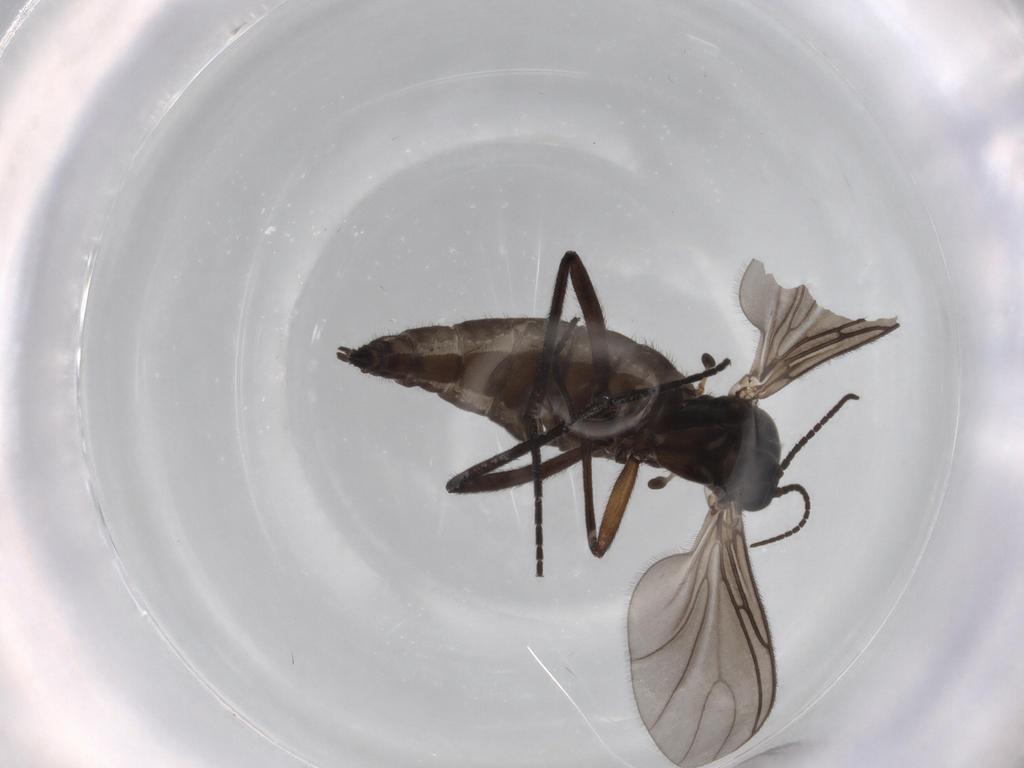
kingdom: Animalia
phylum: Arthropoda
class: Insecta
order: Diptera
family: Sciaridae
